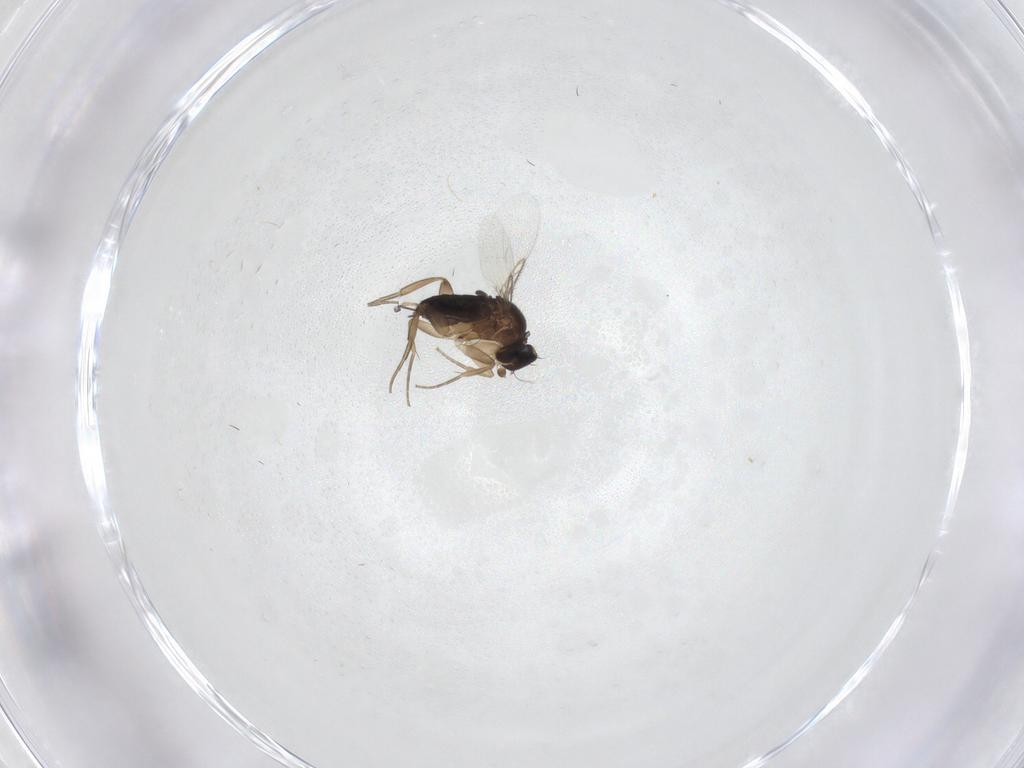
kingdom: Animalia
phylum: Arthropoda
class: Insecta
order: Diptera
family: Phoridae
